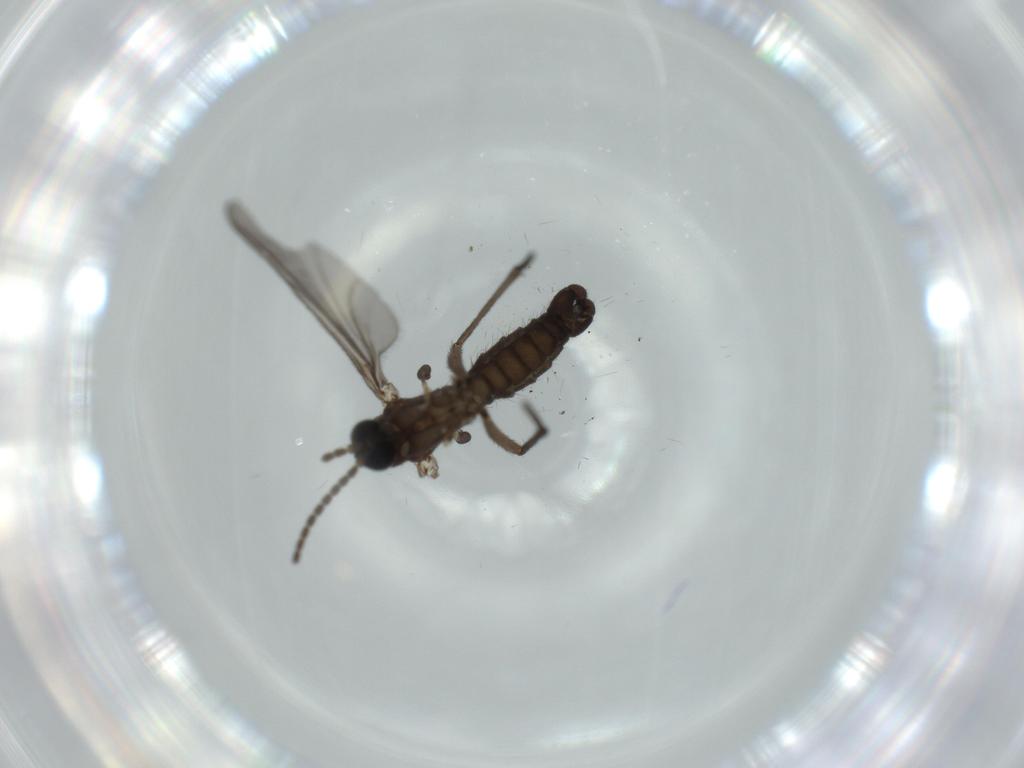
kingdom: Animalia
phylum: Arthropoda
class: Insecta
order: Diptera
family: Sciaridae
